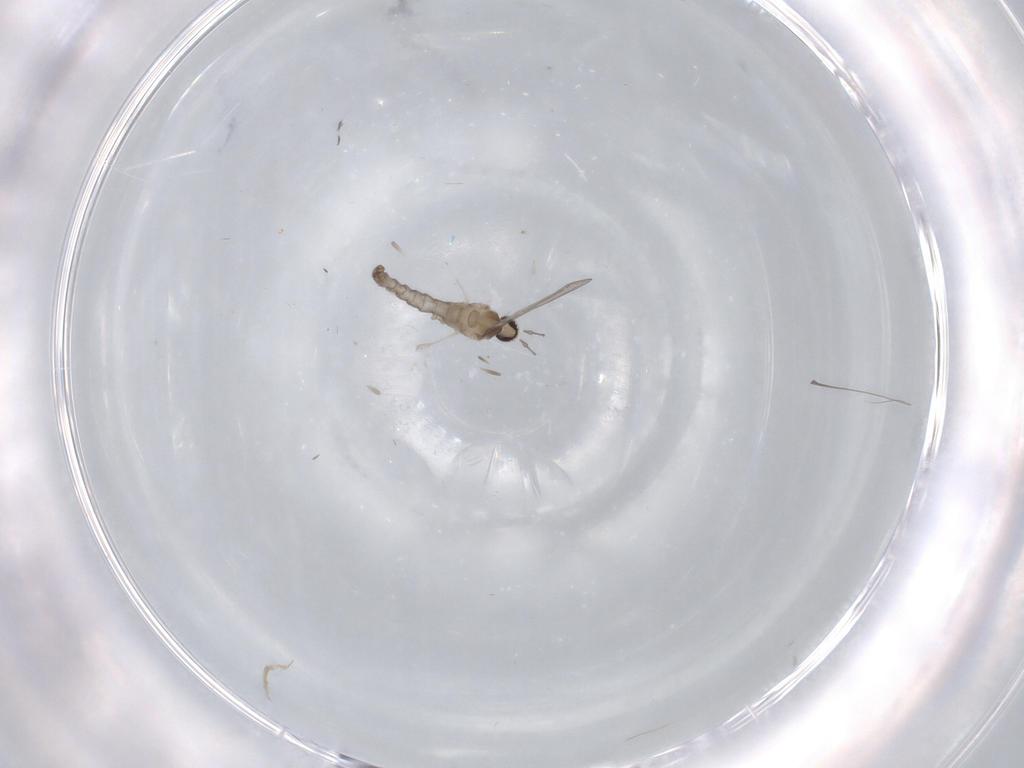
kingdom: Animalia
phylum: Arthropoda
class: Insecta
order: Diptera
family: Cecidomyiidae
